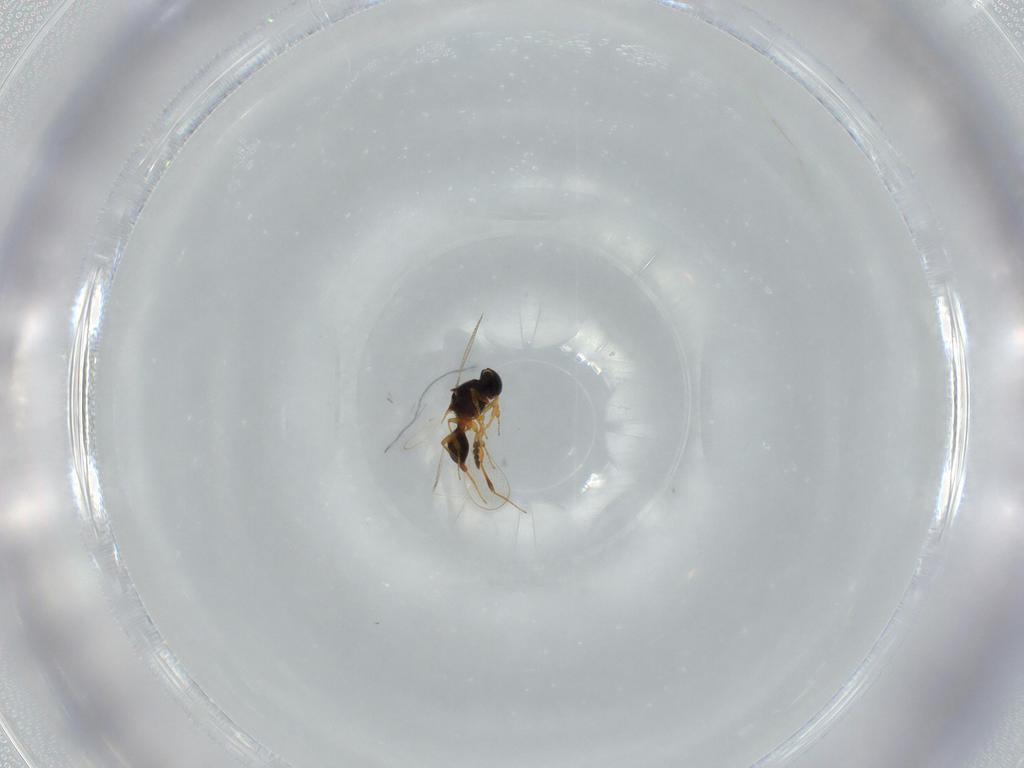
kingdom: Animalia
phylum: Arthropoda
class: Insecta
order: Hymenoptera
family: Platygastridae
